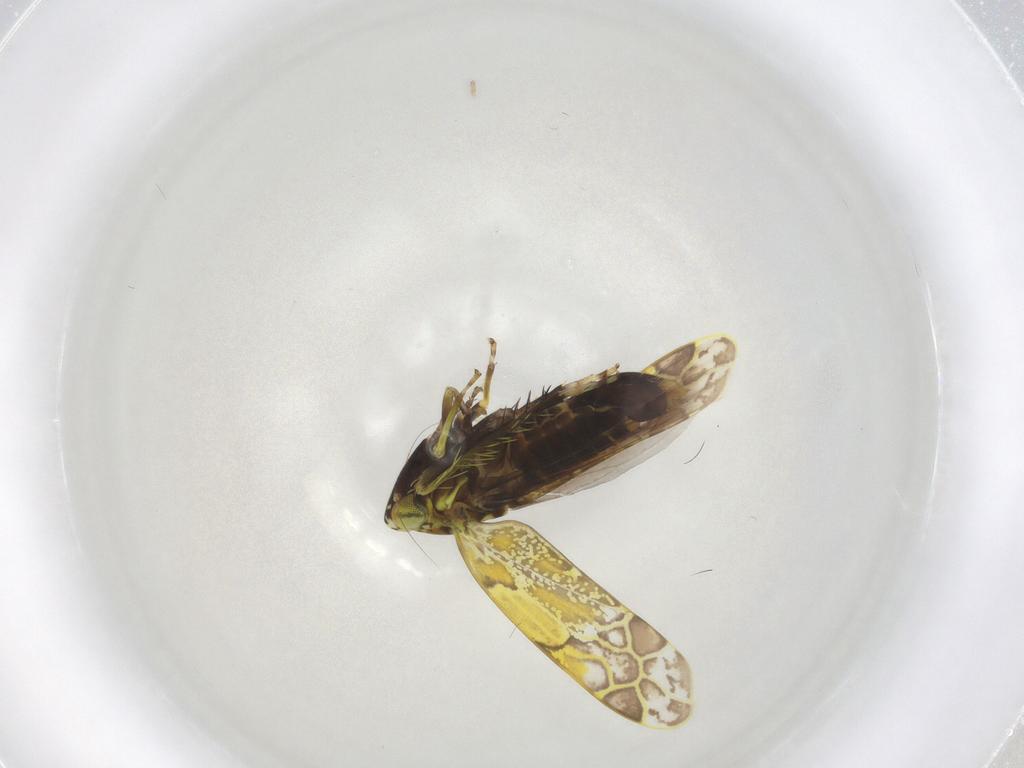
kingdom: Animalia
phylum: Arthropoda
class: Insecta
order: Hemiptera
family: Cicadellidae
